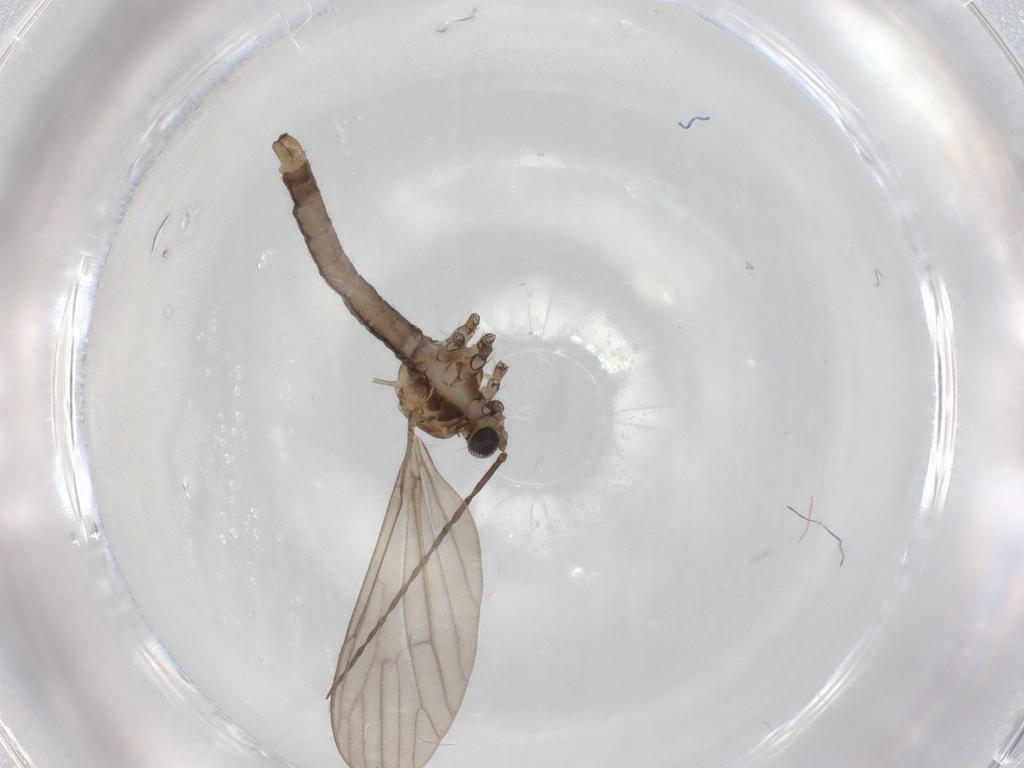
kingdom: Animalia
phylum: Arthropoda
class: Insecta
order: Diptera
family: Limoniidae
